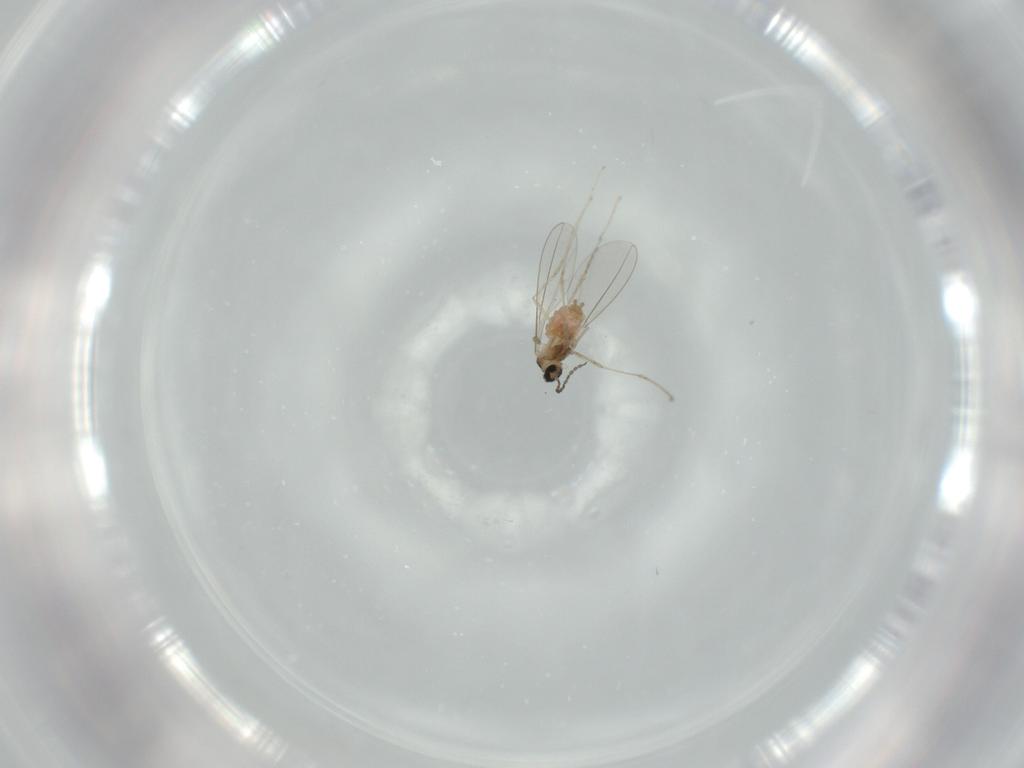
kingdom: Animalia
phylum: Arthropoda
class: Insecta
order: Diptera
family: Cecidomyiidae
